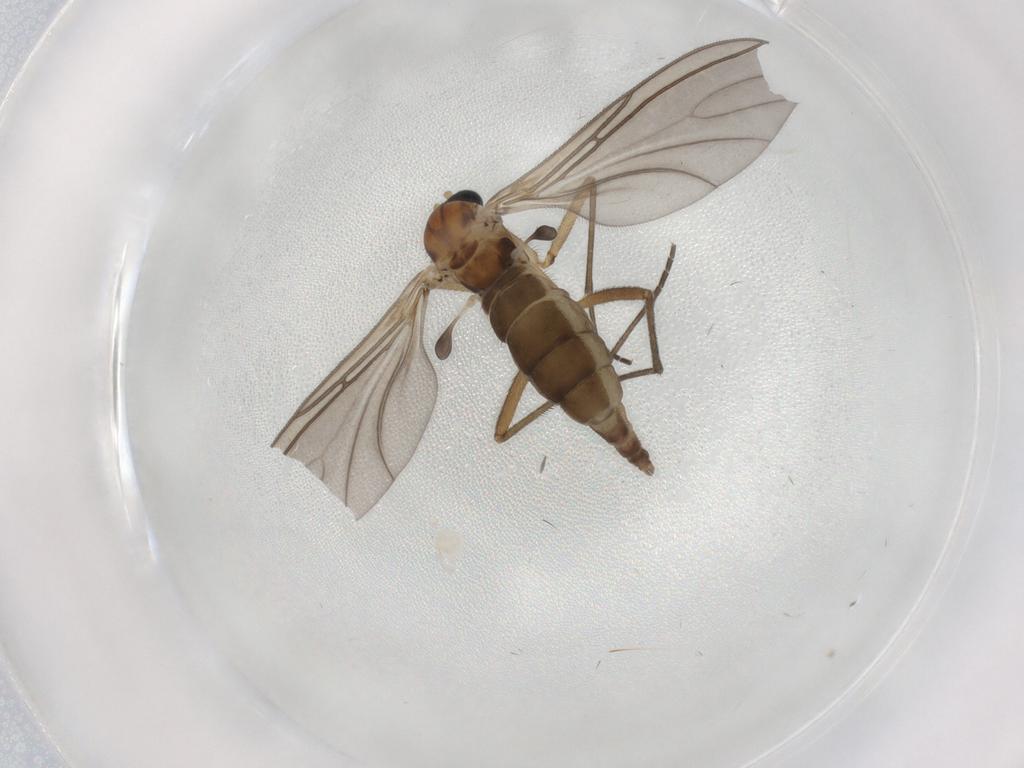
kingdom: Animalia
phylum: Arthropoda
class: Insecta
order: Diptera
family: Sciaridae
